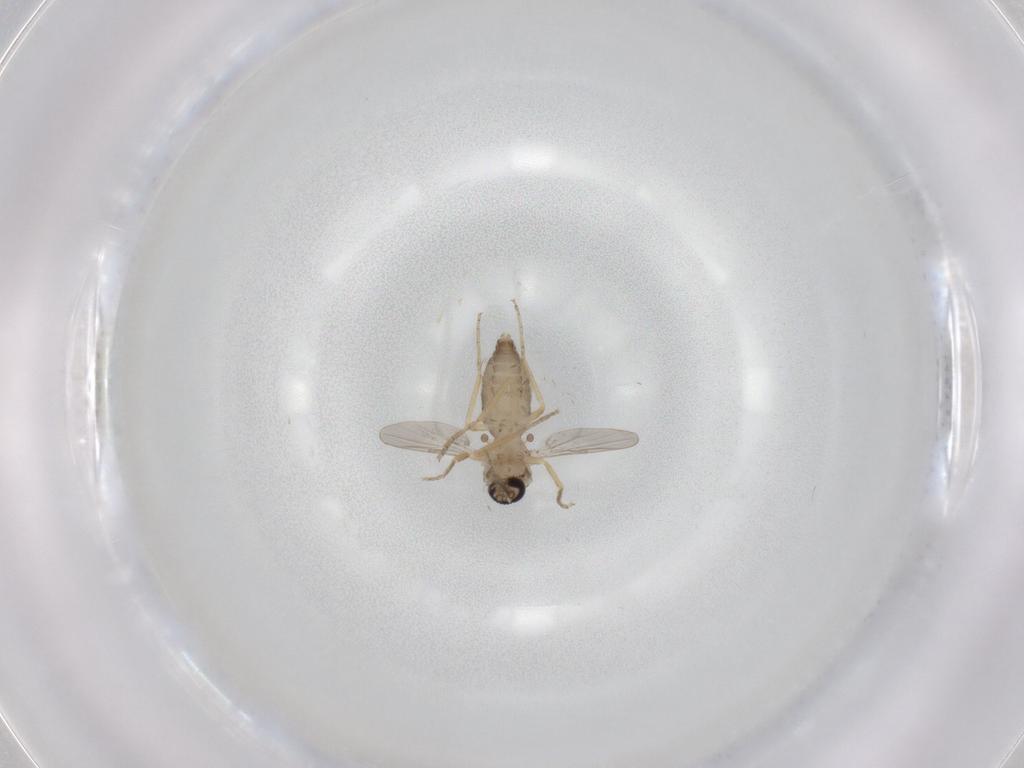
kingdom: Animalia
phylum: Arthropoda
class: Insecta
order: Diptera
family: Ceratopogonidae
